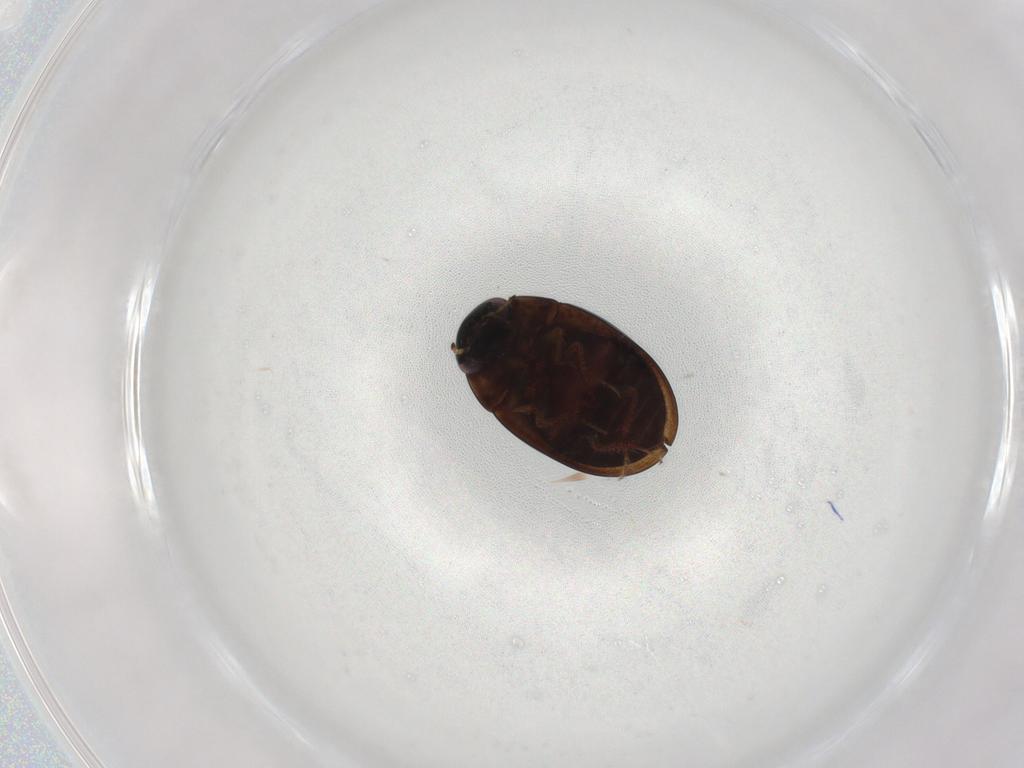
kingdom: Animalia
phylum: Arthropoda
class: Insecta
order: Coleoptera
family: Hydrophilidae
